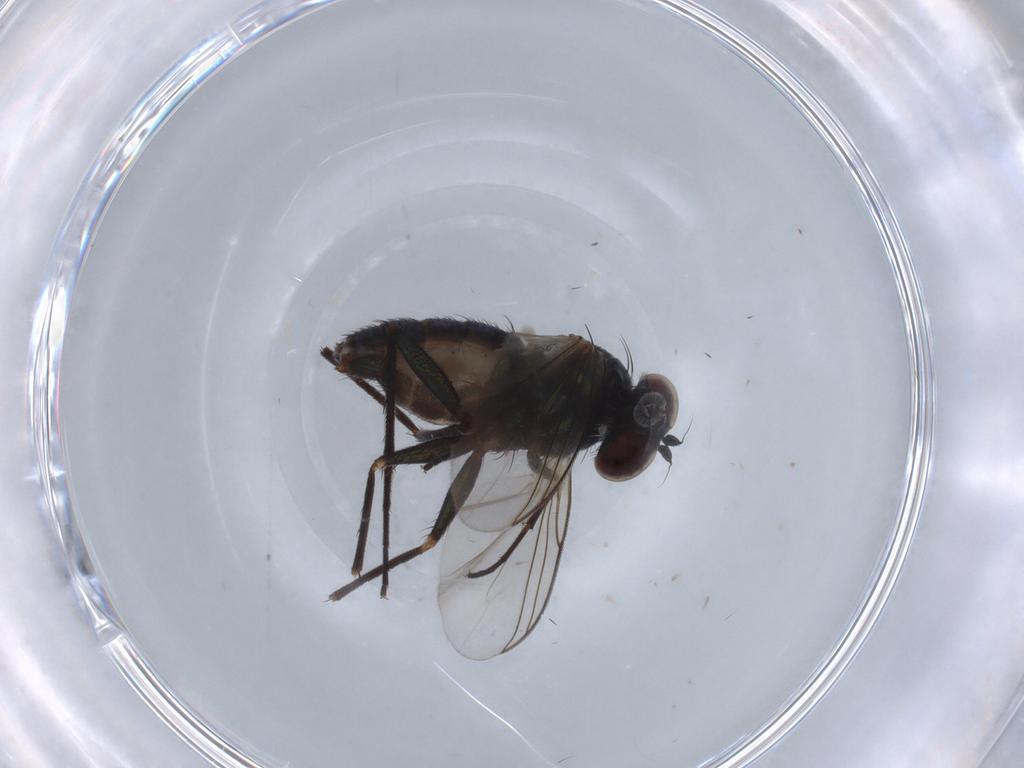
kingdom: Animalia
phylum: Arthropoda
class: Insecta
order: Diptera
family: Dolichopodidae
